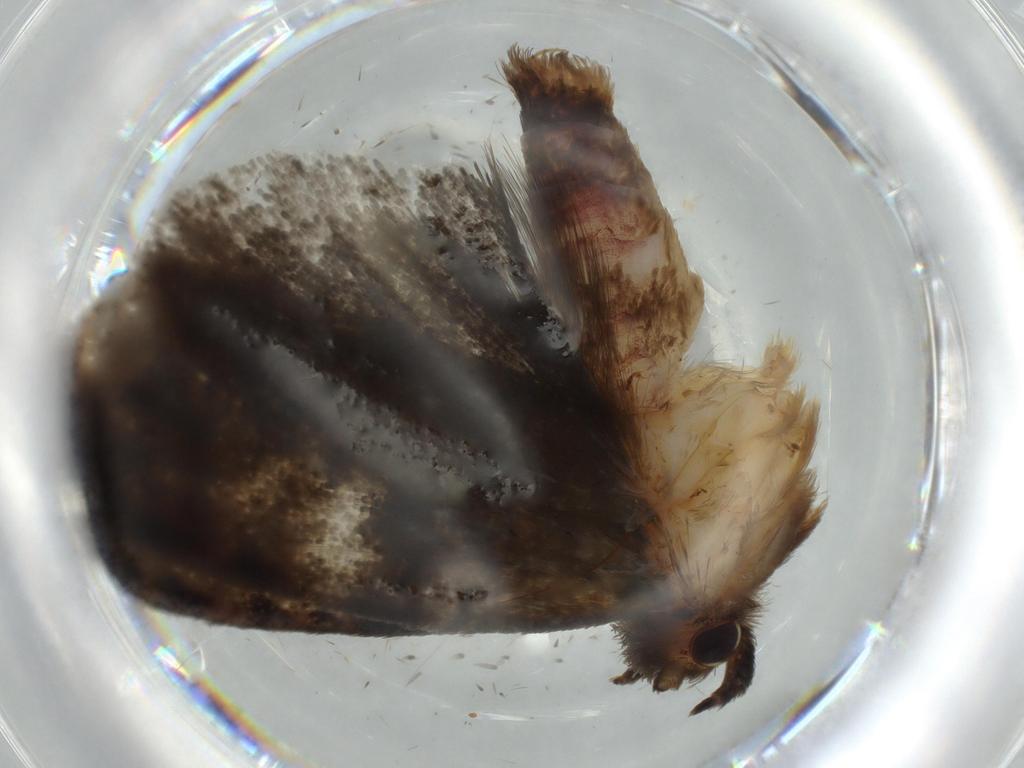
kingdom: Animalia
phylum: Arthropoda
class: Insecta
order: Lepidoptera
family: Tineidae
